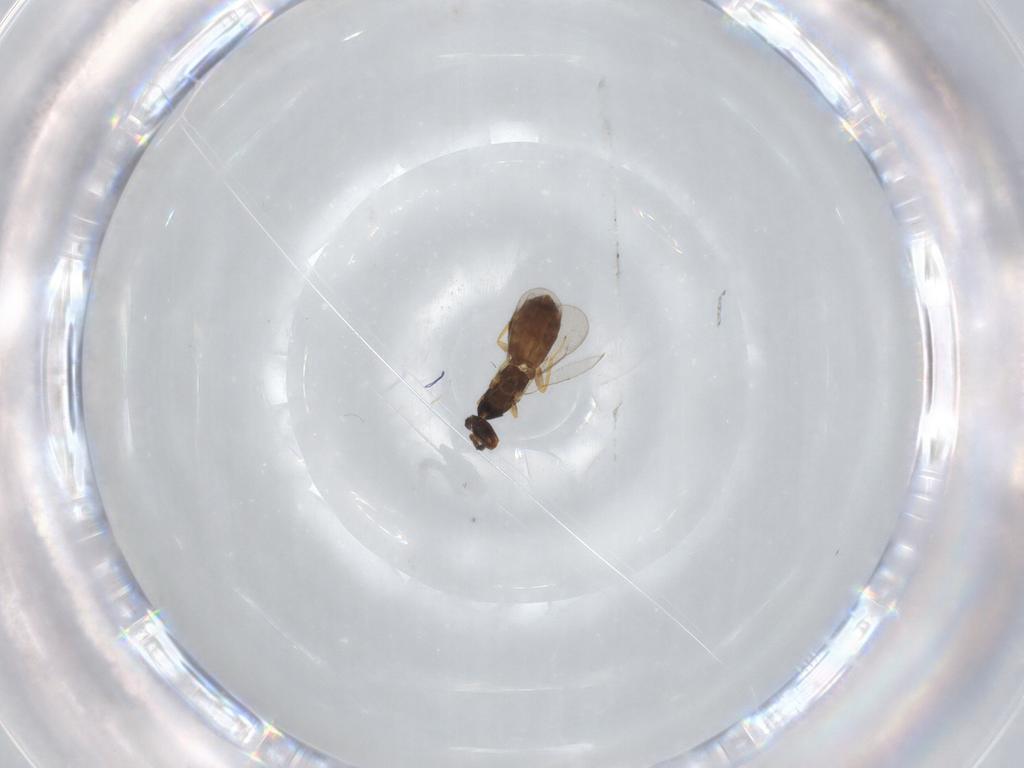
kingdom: Animalia
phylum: Arthropoda
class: Insecta
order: Hymenoptera
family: Eulophidae
